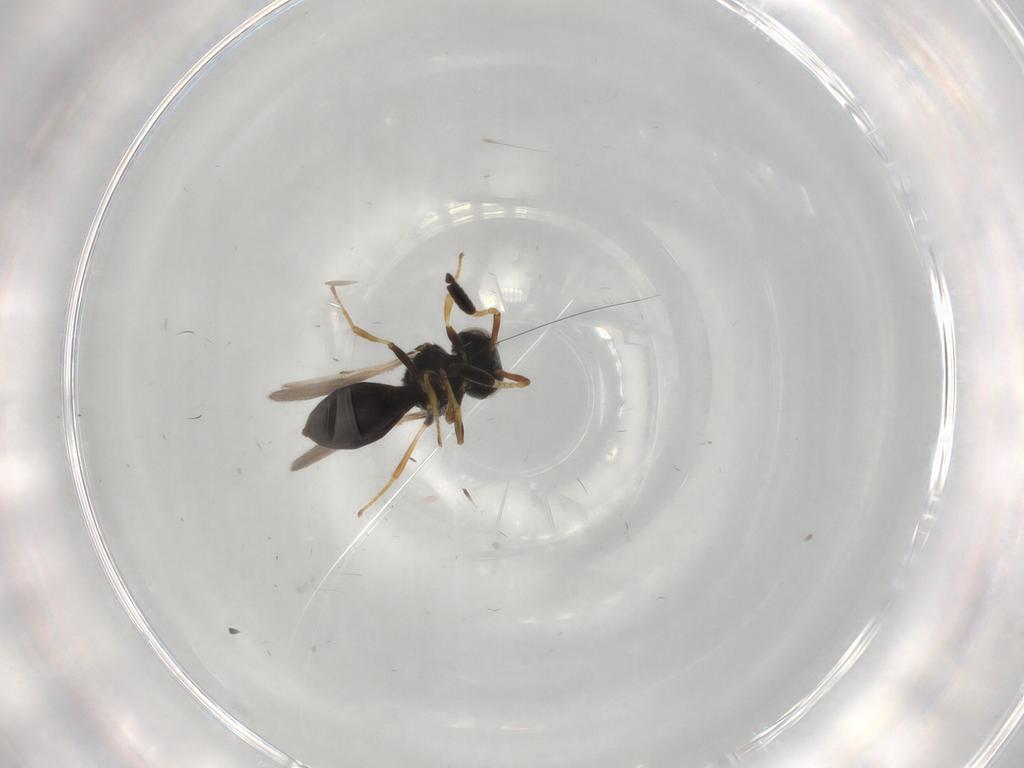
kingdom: Animalia
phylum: Arthropoda
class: Insecta
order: Hymenoptera
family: Scelionidae
